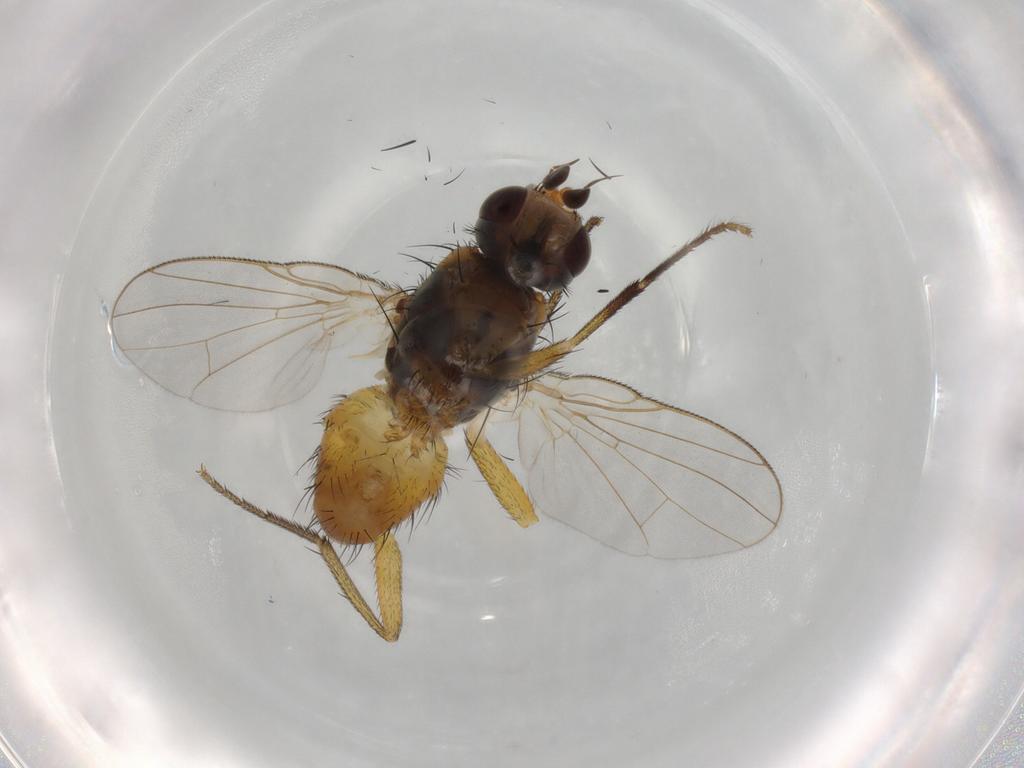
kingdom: Animalia
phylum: Arthropoda
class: Insecta
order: Diptera
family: Muscidae
